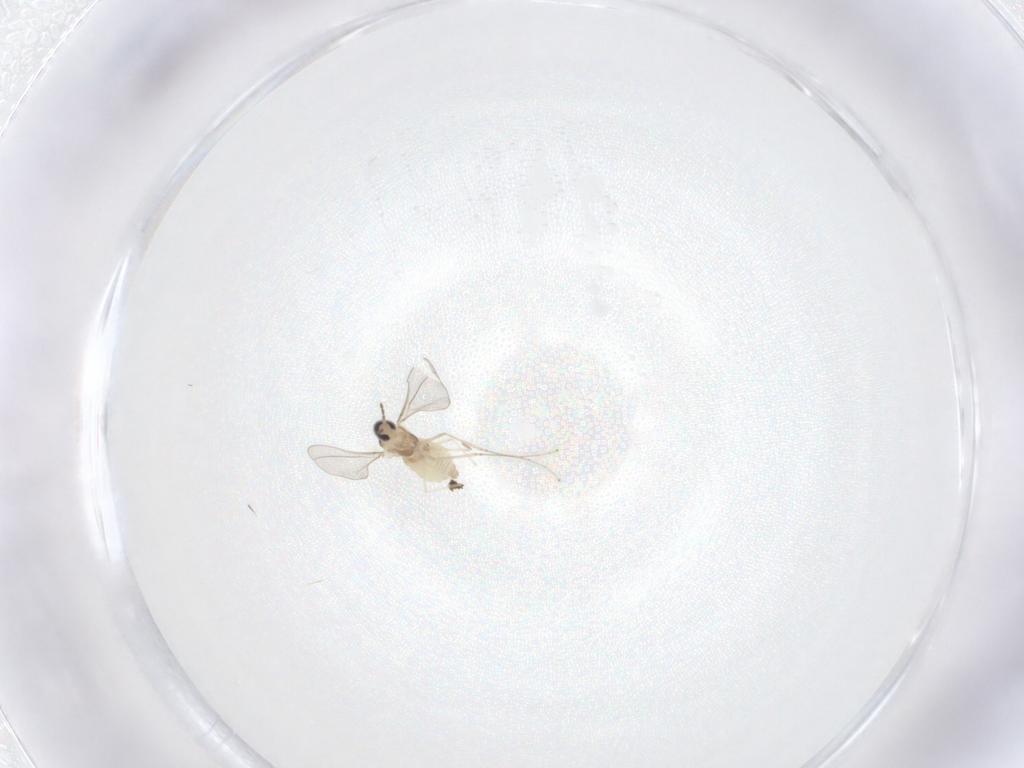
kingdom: Animalia
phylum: Arthropoda
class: Insecta
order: Diptera
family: Cecidomyiidae
